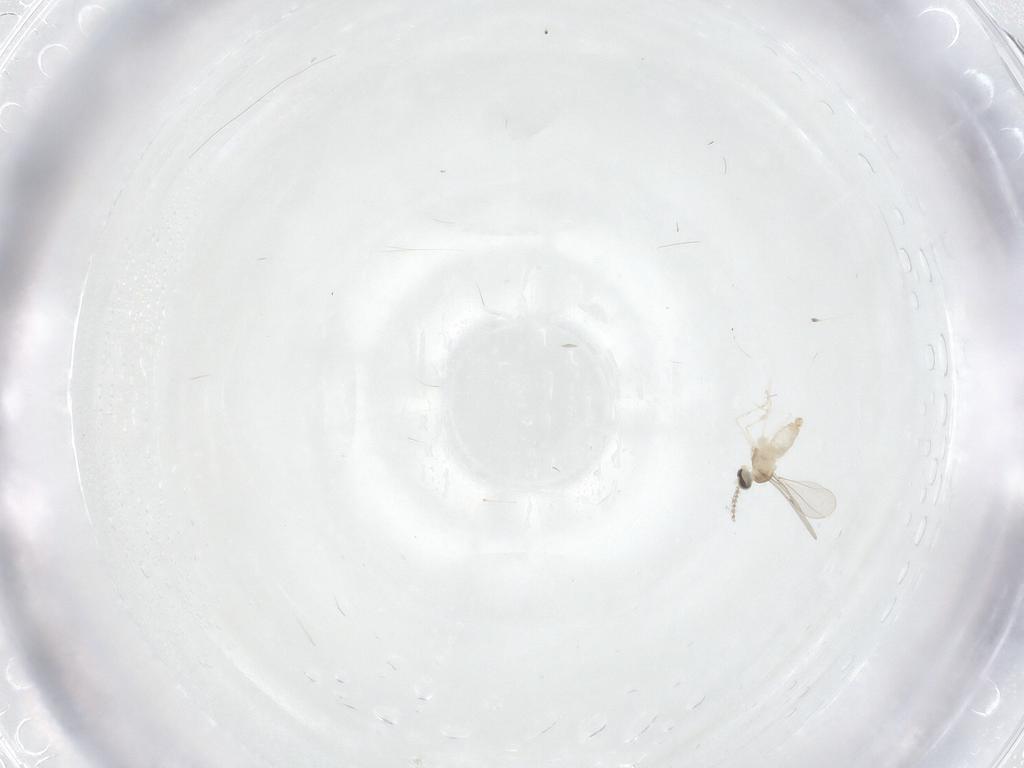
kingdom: Animalia
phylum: Arthropoda
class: Insecta
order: Diptera
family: Cecidomyiidae
